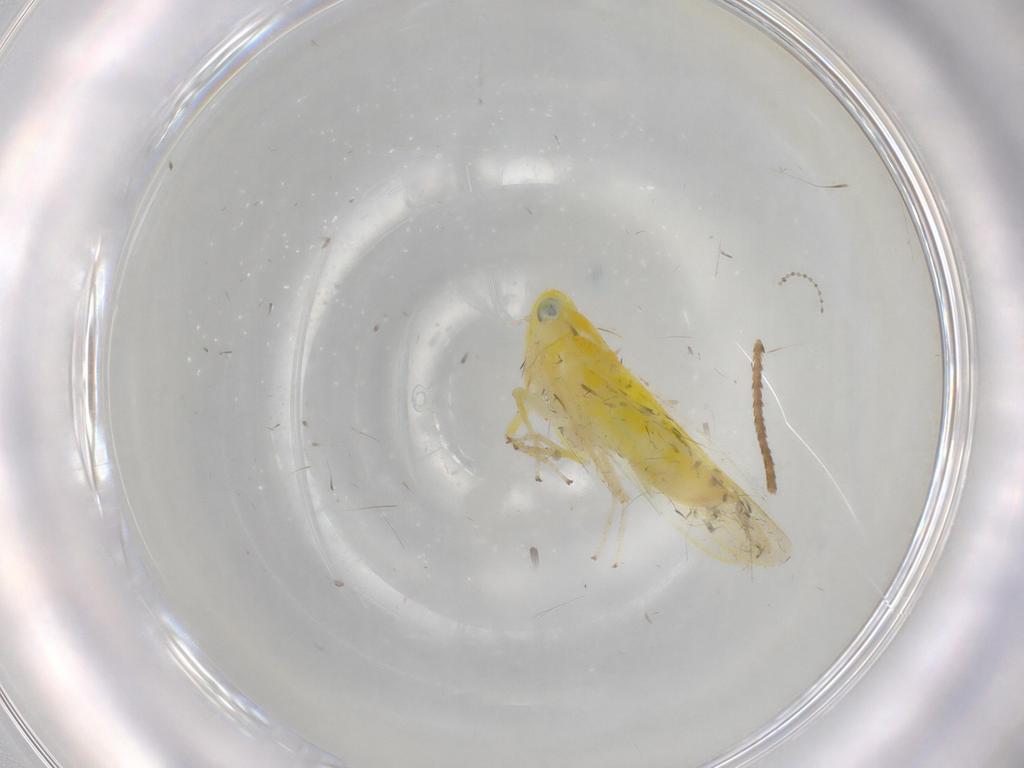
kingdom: Animalia
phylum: Arthropoda
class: Insecta
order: Hemiptera
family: Cicadellidae
